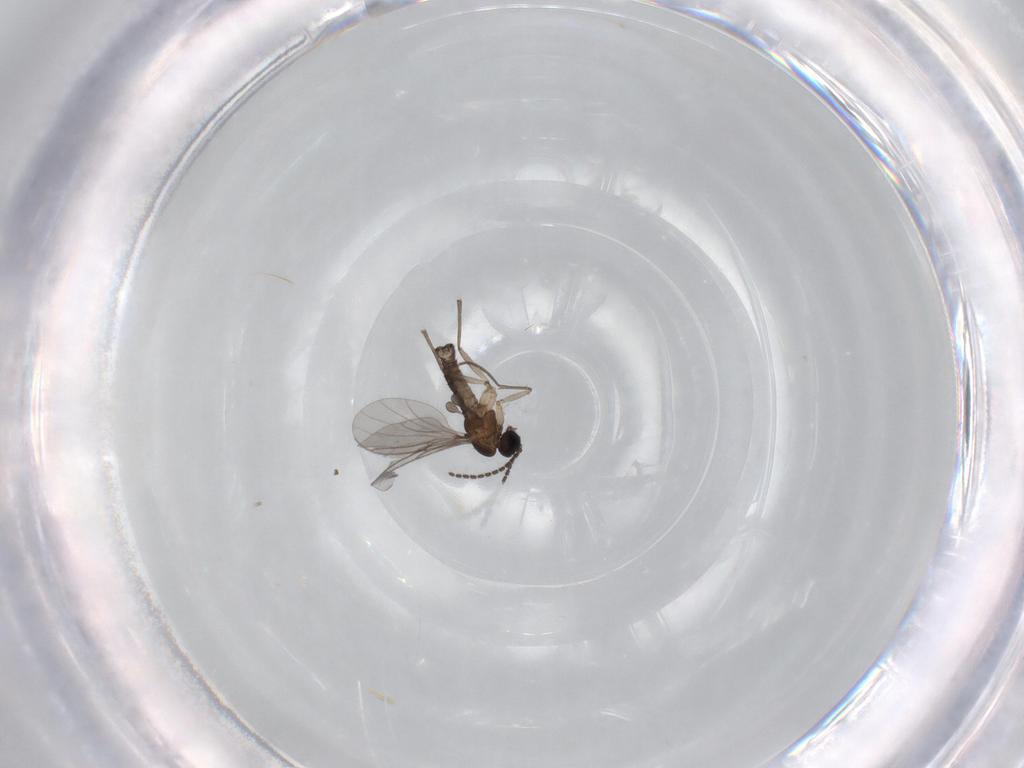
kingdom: Animalia
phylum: Arthropoda
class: Insecta
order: Diptera
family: Sciaridae
